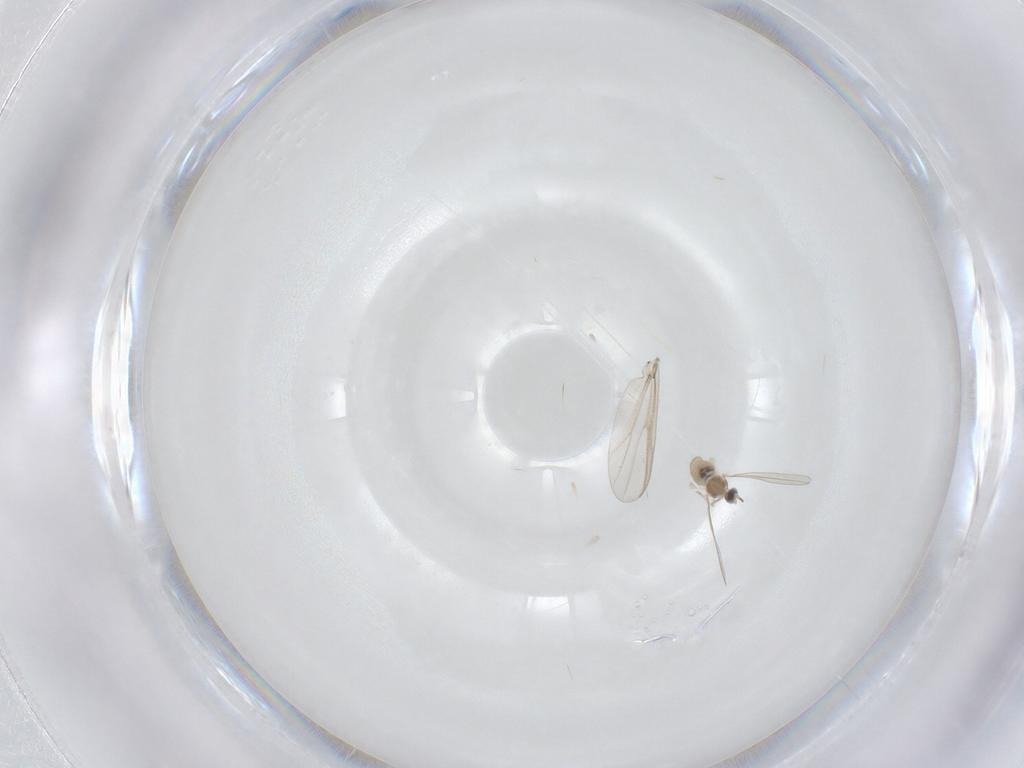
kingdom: Animalia
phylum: Arthropoda
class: Insecta
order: Diptera
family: Cecidomyiidae
